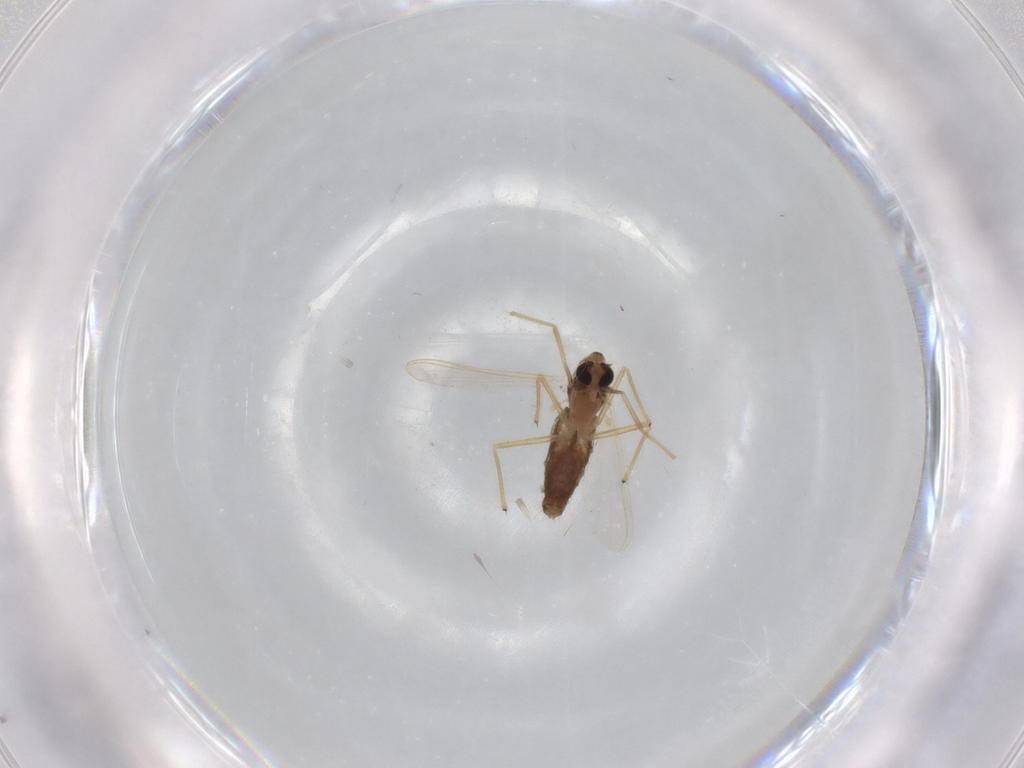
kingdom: Animalia
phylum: Arthropoda
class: Insecta
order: Diptera
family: Chironomidae
